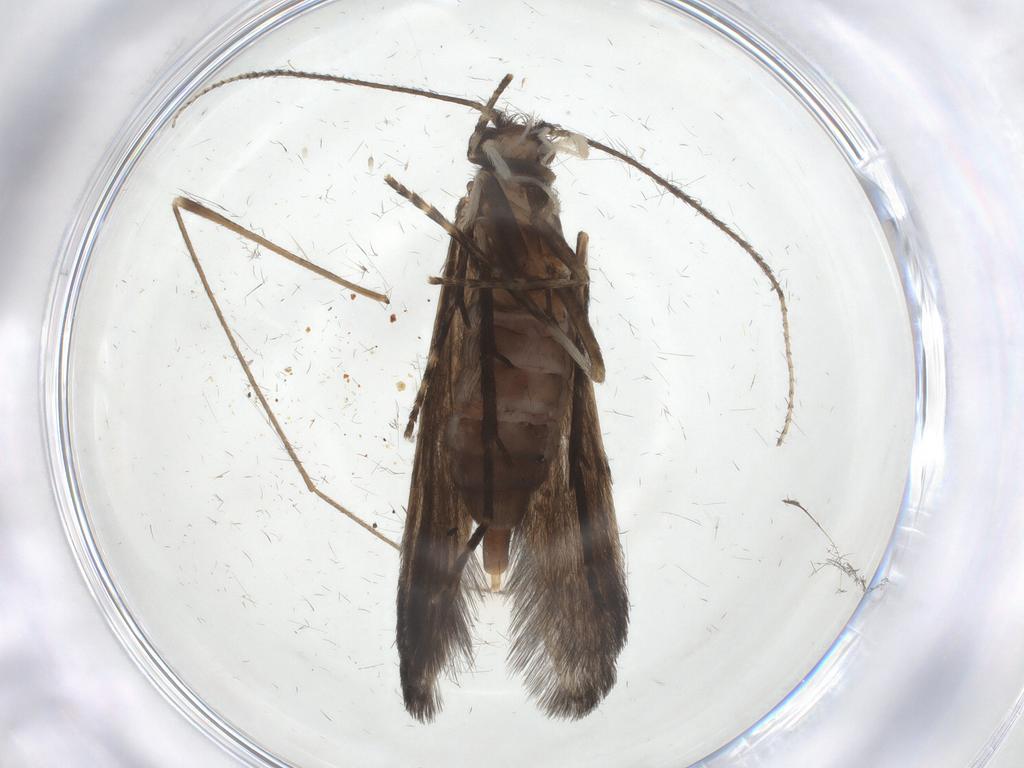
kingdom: Animalia
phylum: Arthropoda
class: Insecta
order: Trichoptera
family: Xiphocentronidae
